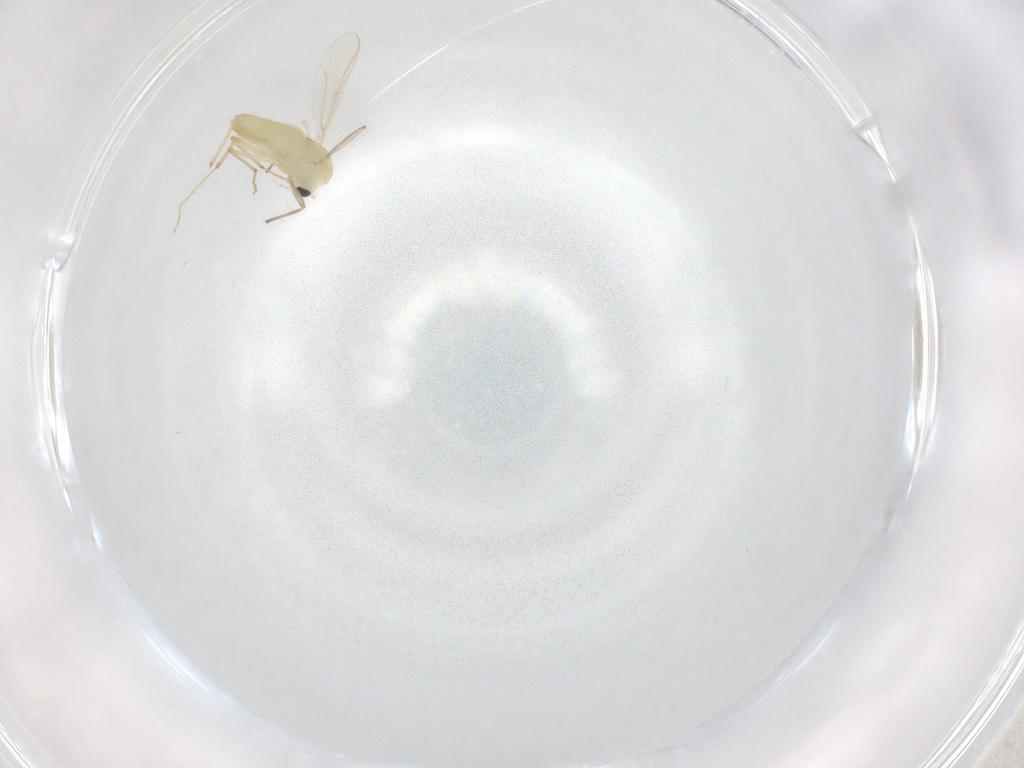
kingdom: Animalia
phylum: Arthropoda
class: Insecta
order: Diptera
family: Chironomidae
